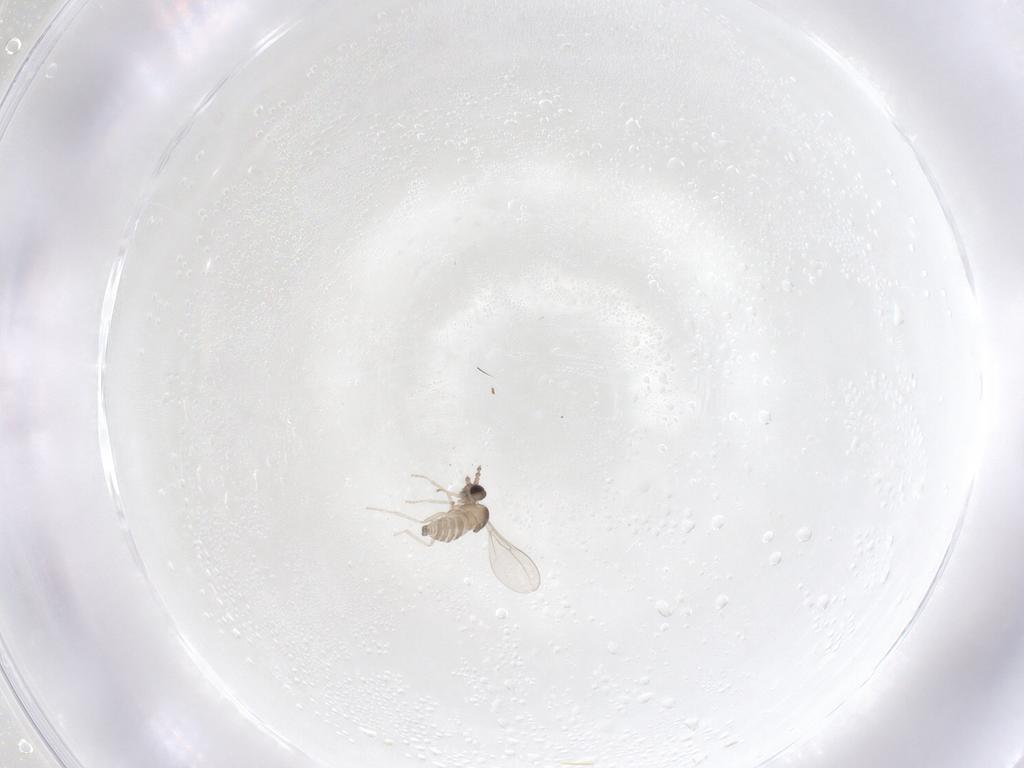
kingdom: Animalia
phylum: Arthropoda
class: Insecta
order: Diptera
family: Cecidomyiidae
